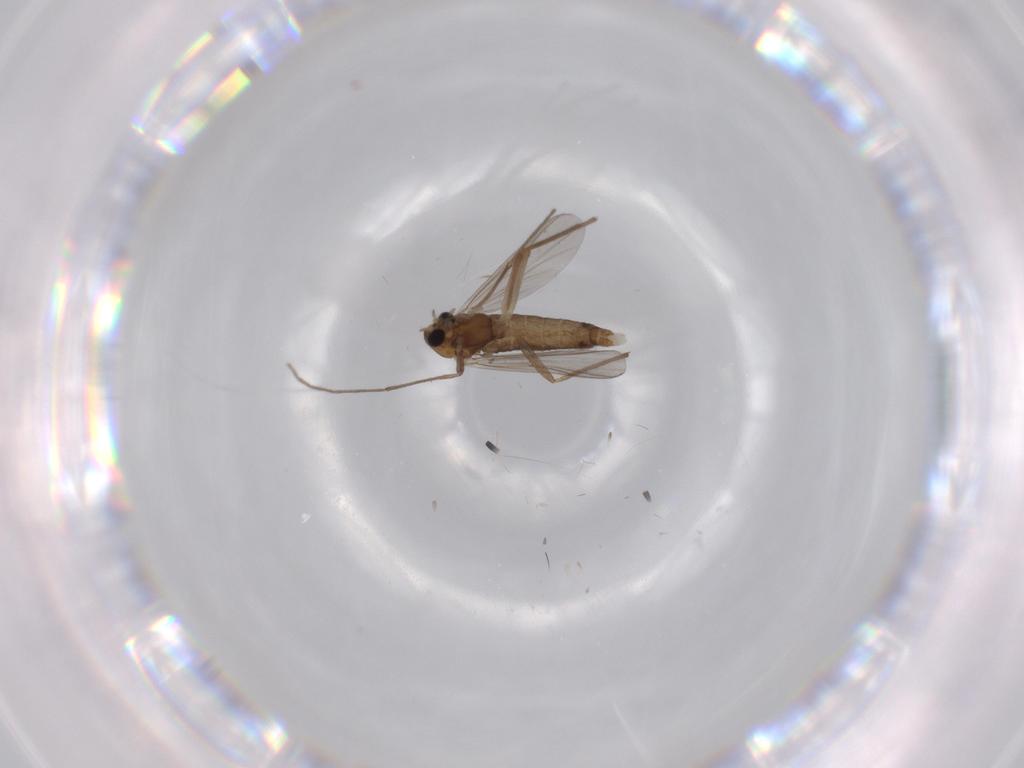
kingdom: Animalia
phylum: Arthropoda
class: Insecta
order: Diptera
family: Chironomidae
